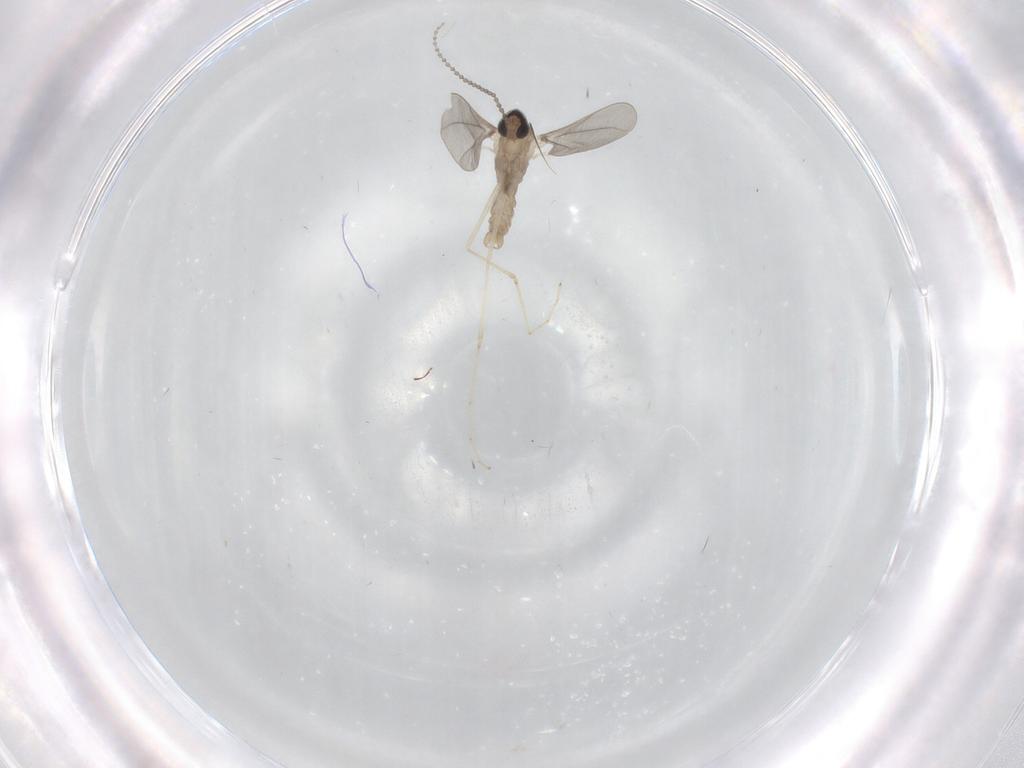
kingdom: Animalia
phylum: Arthropoda
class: Insecta
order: Diptera
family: Cecidomyiidae
